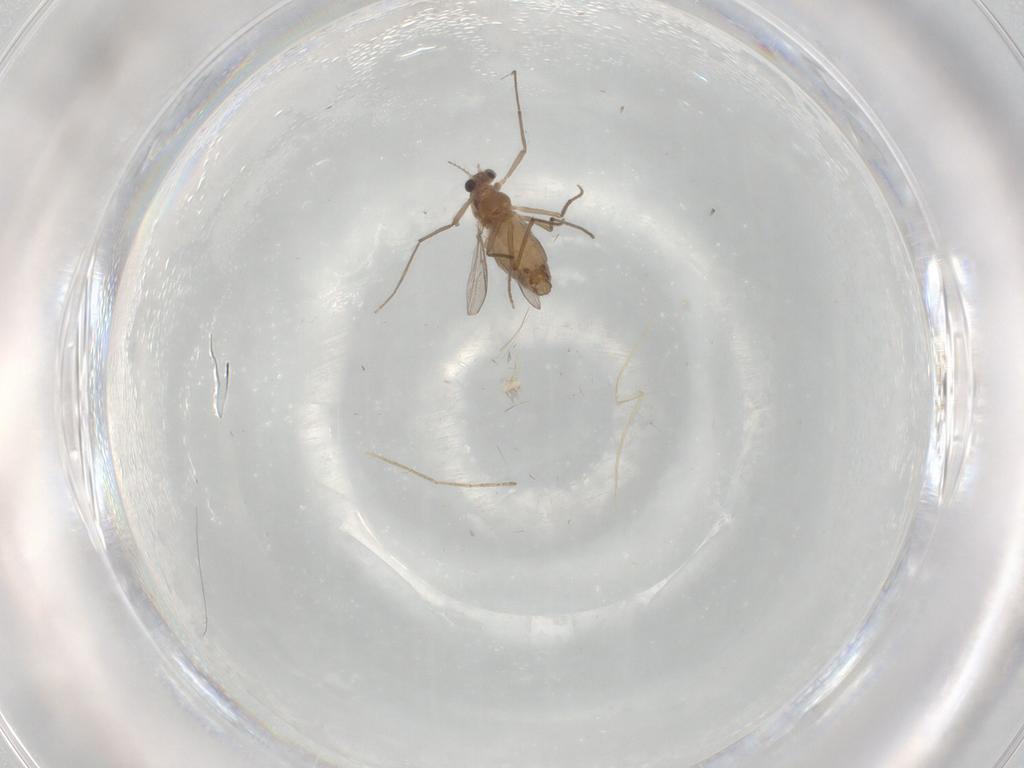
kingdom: Animalia
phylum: Arthropoda
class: Insecta
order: Diptera
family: Chironomidae
